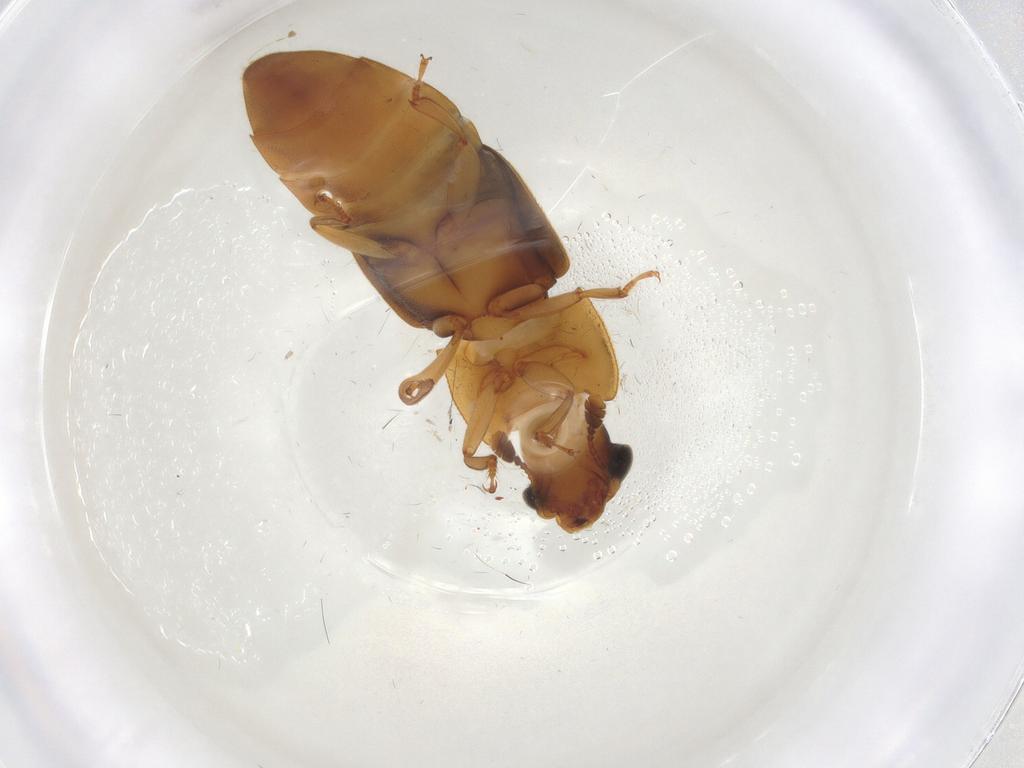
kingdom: Animalia
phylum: Arthropoda
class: Insecta
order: Coleoptera
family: Nitidulidae
